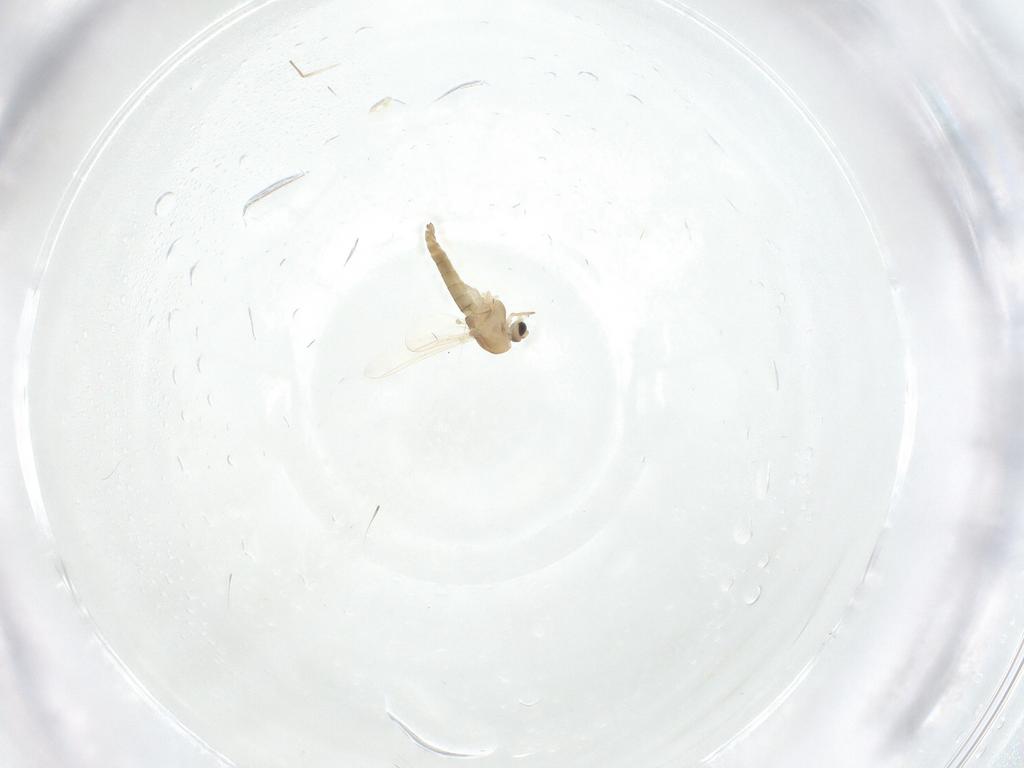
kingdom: Animalia
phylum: Arthropoda
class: Insecta
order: Diptera
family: Chironomidae
